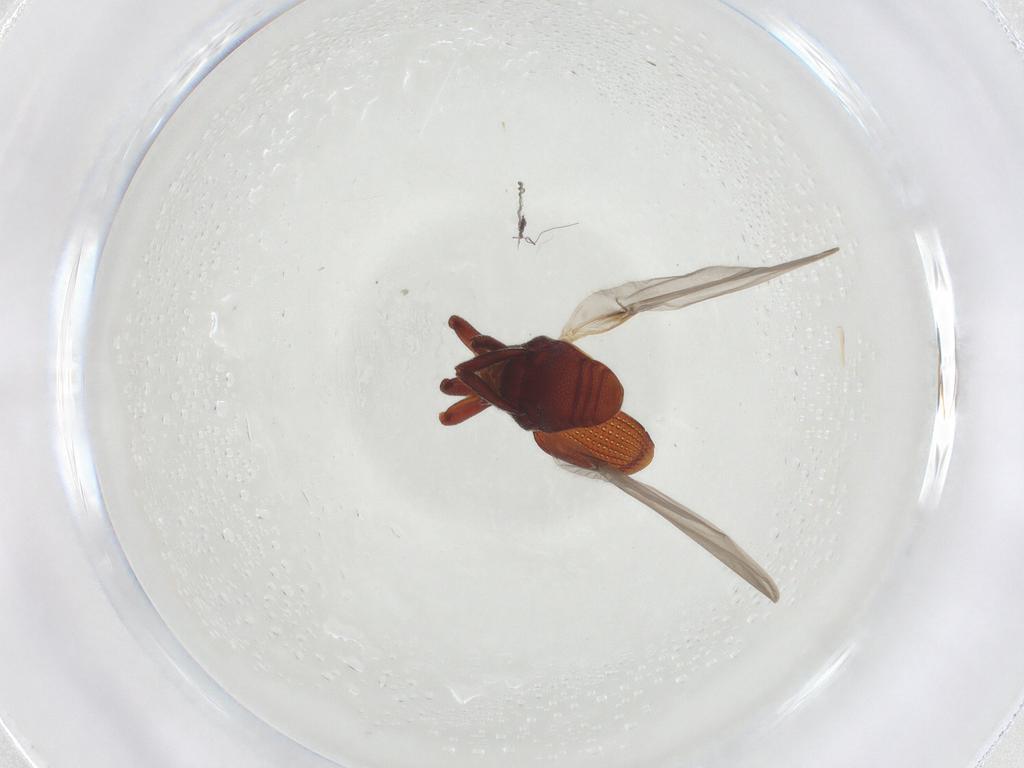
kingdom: Animalia
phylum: Arthropoda
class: Insecta
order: Coleoptera
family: Curculionidae
